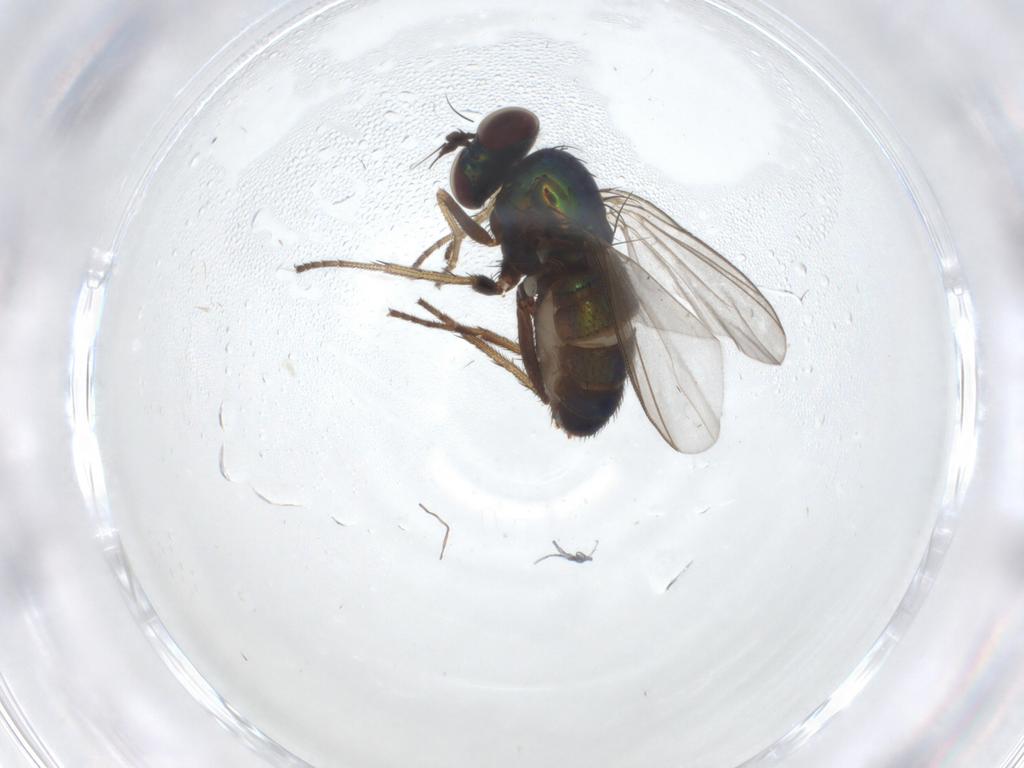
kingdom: Animalia
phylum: Arthropoda
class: Insecta
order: Diptera
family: Dolichopodidae
